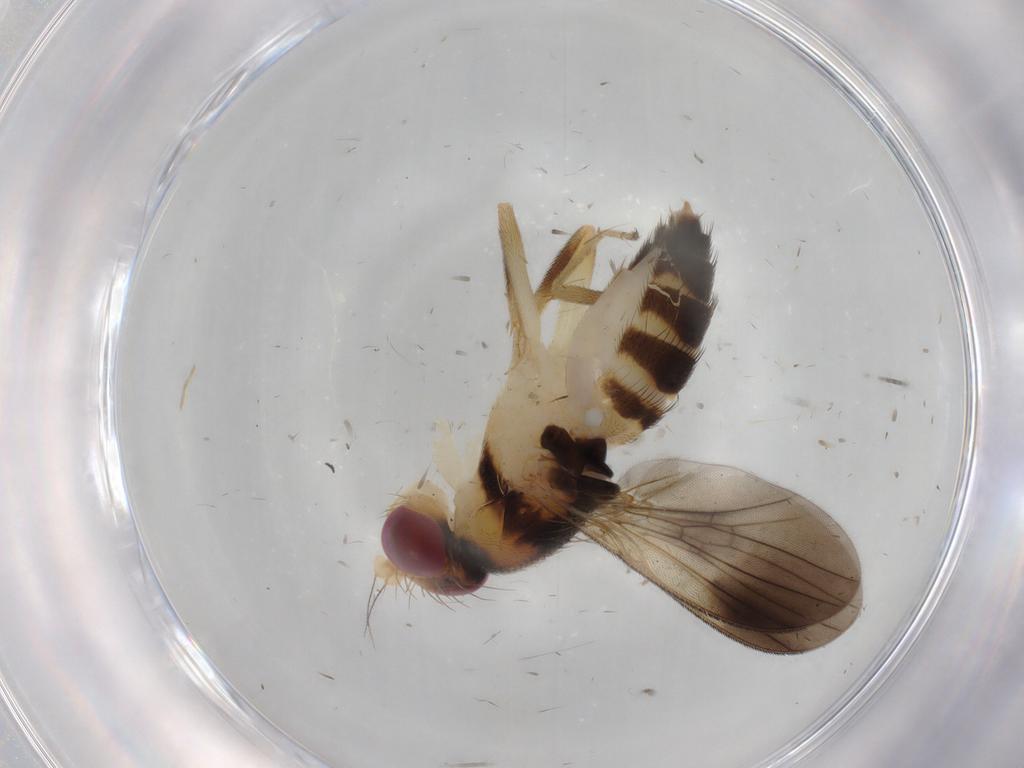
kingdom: Animalia
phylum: Arthropoda
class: Insecta
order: Diptera
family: Clusiidae
